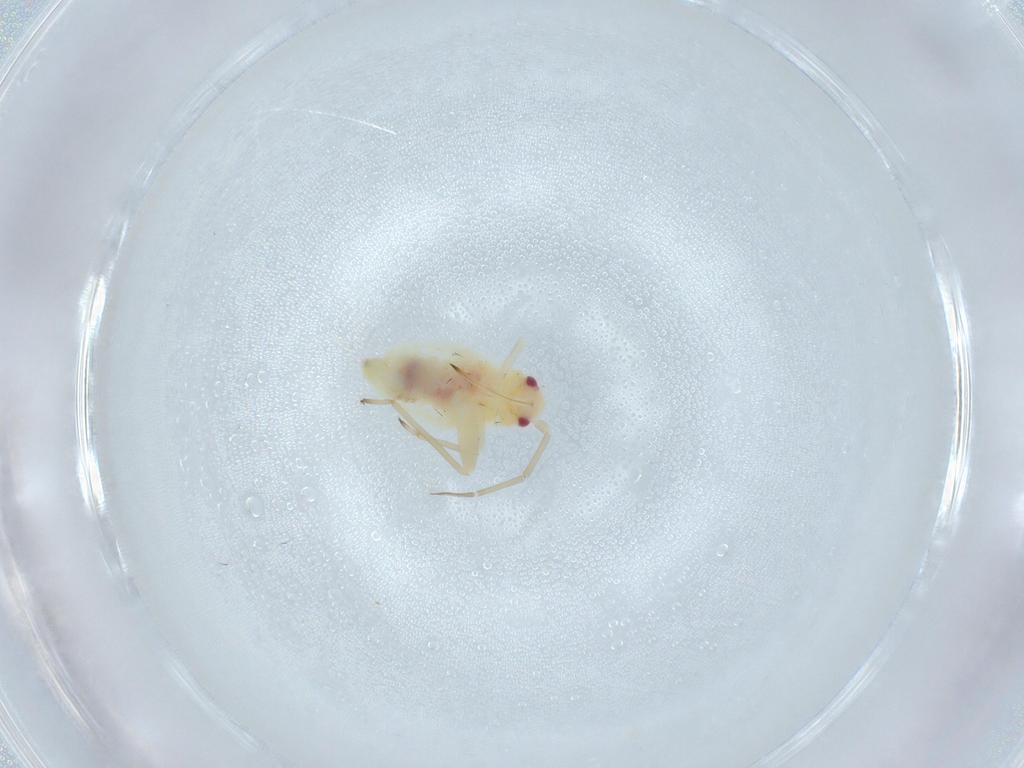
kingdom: Animalia
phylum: Arthropoda
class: Insecta
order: Hemiptera
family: Miridae
